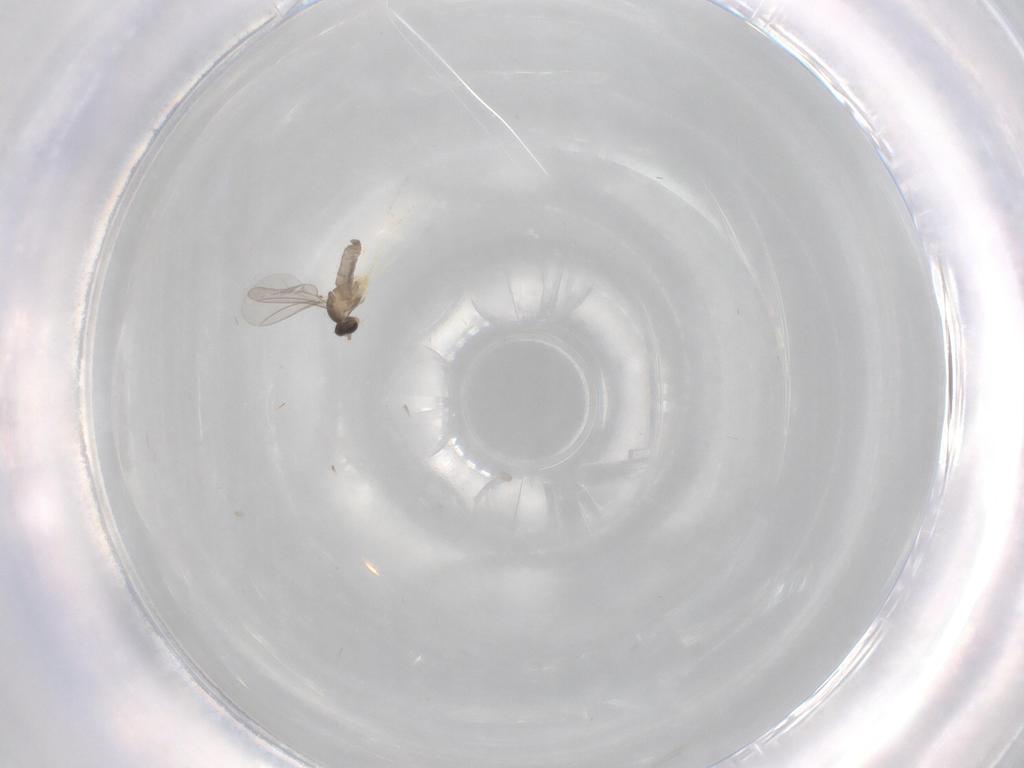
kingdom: Animalia
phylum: Arthropoda
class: Insecta
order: Diptera
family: Cecidomyiidae
